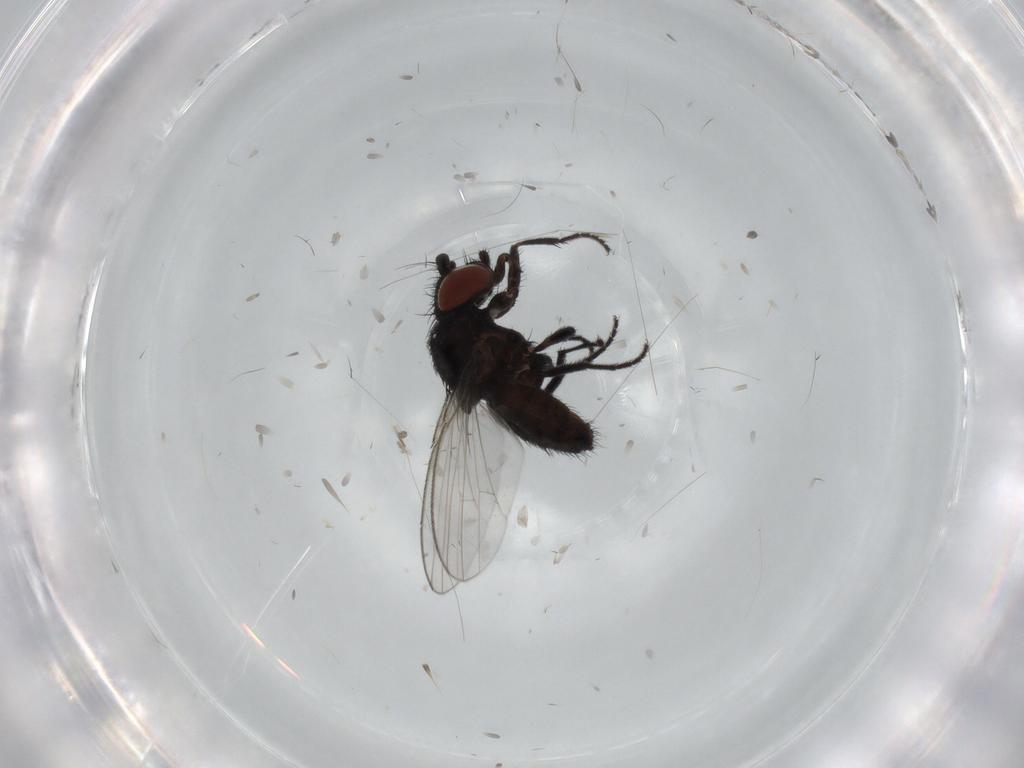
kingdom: Animalia
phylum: Arthropoda
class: Insecta
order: Diptera
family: Milichiidae
